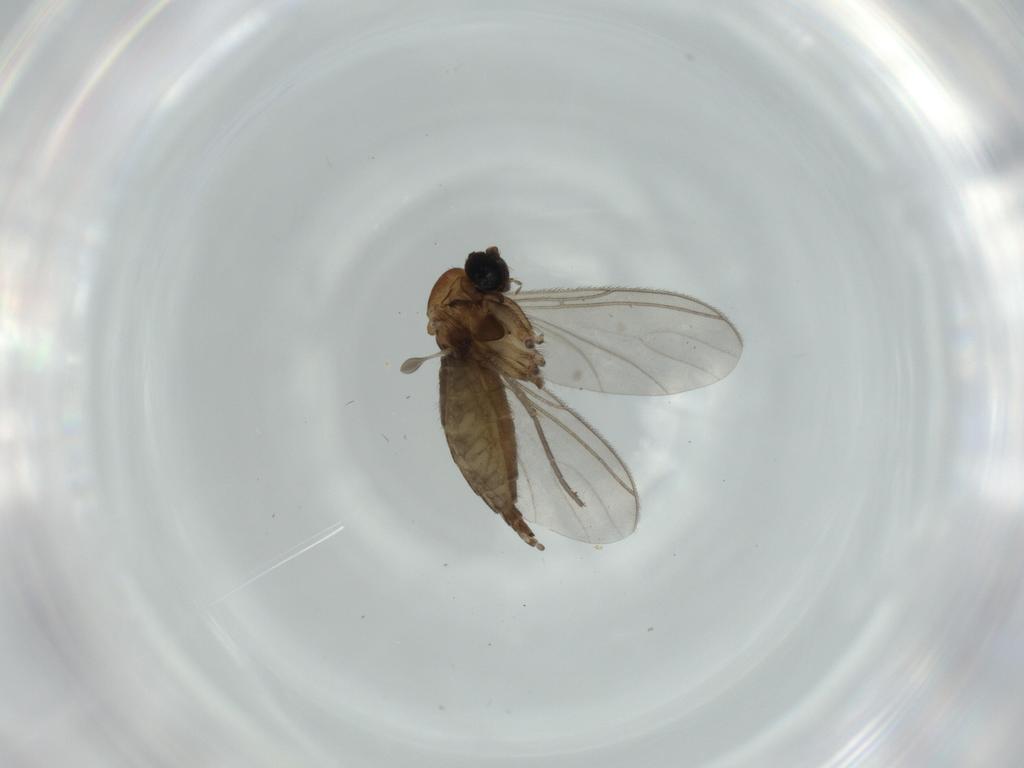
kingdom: Animalia
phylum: Arthropoda
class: Insecta
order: Diptera
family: Sciaridae
